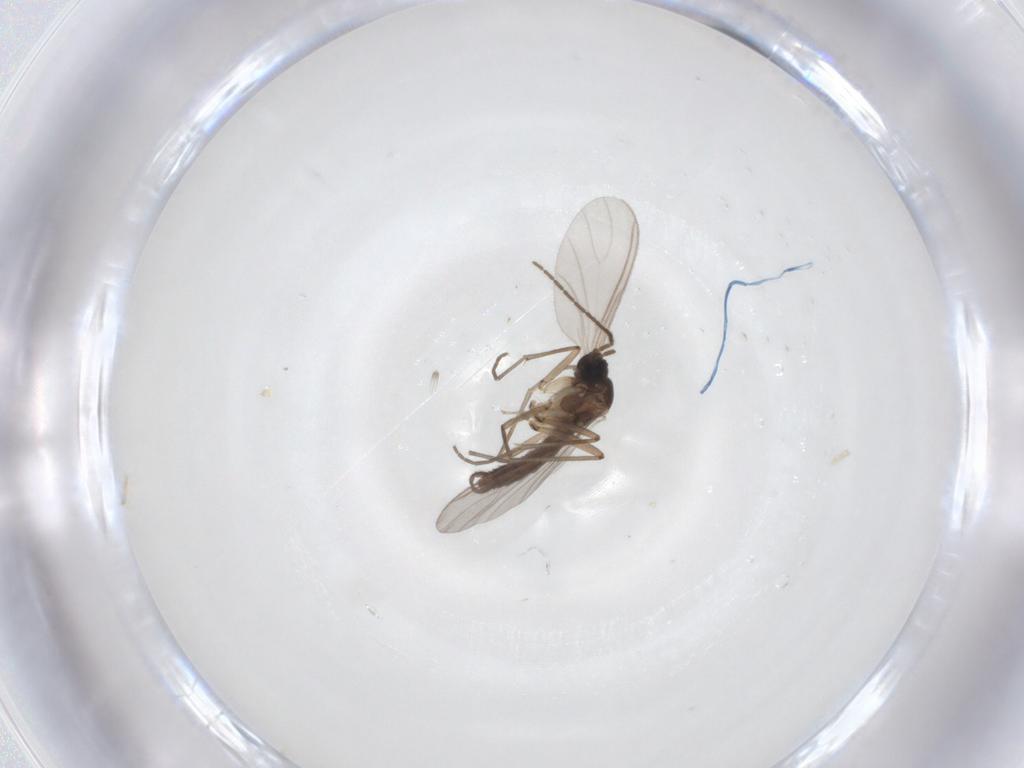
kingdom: Animalia
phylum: Arthropoda
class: Insecta
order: Diptera
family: Sciaridae
